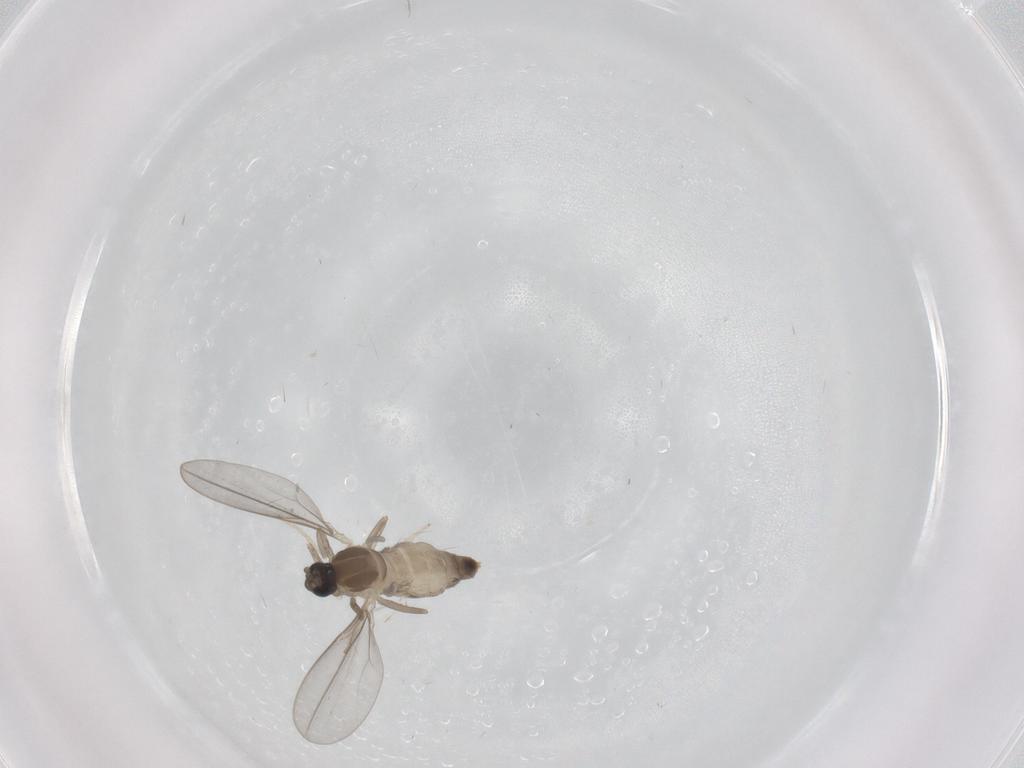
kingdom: Animalia
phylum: Arthropoda
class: Insecta
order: Diptera
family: Cecidomyiidae
